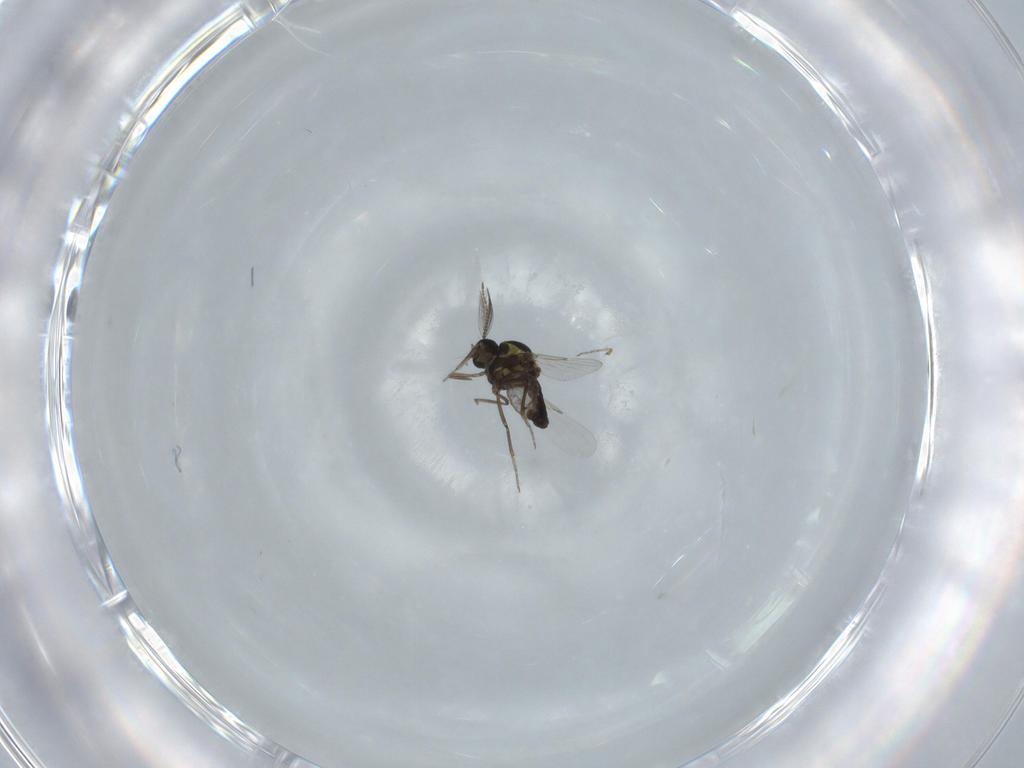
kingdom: Animalia
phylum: Arthropoda
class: Insecta
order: Diptera
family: Ceratopogonidae
